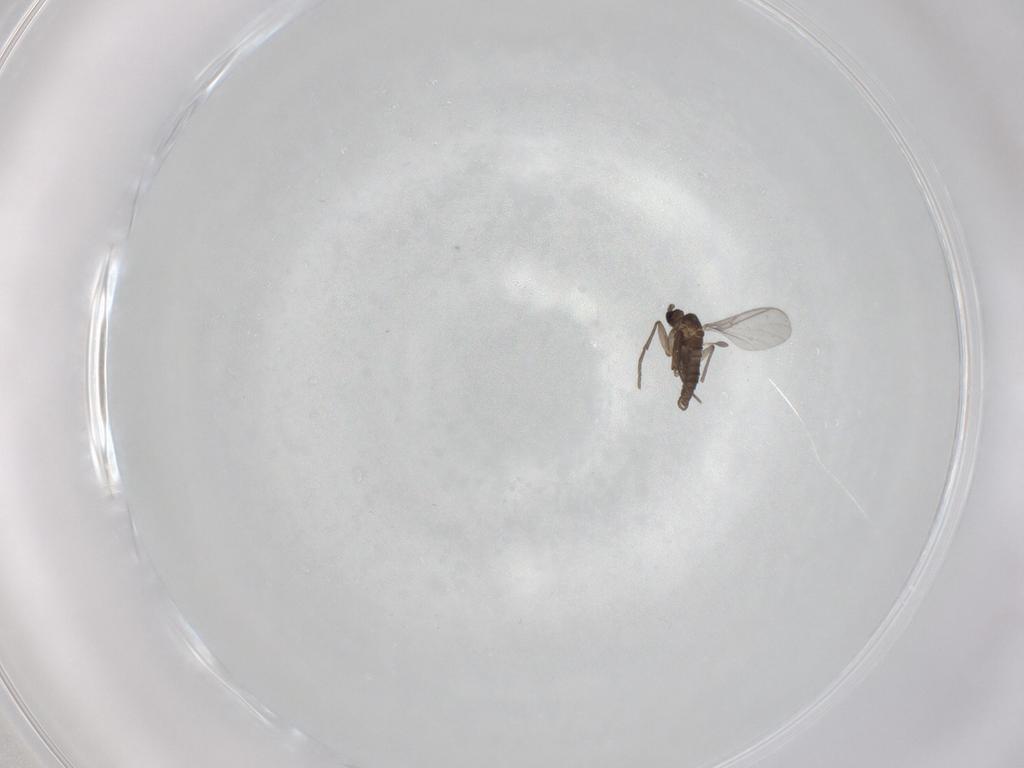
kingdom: Animalia
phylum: Arthropoda
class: Insecta
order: Diptera
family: Sciaridae
